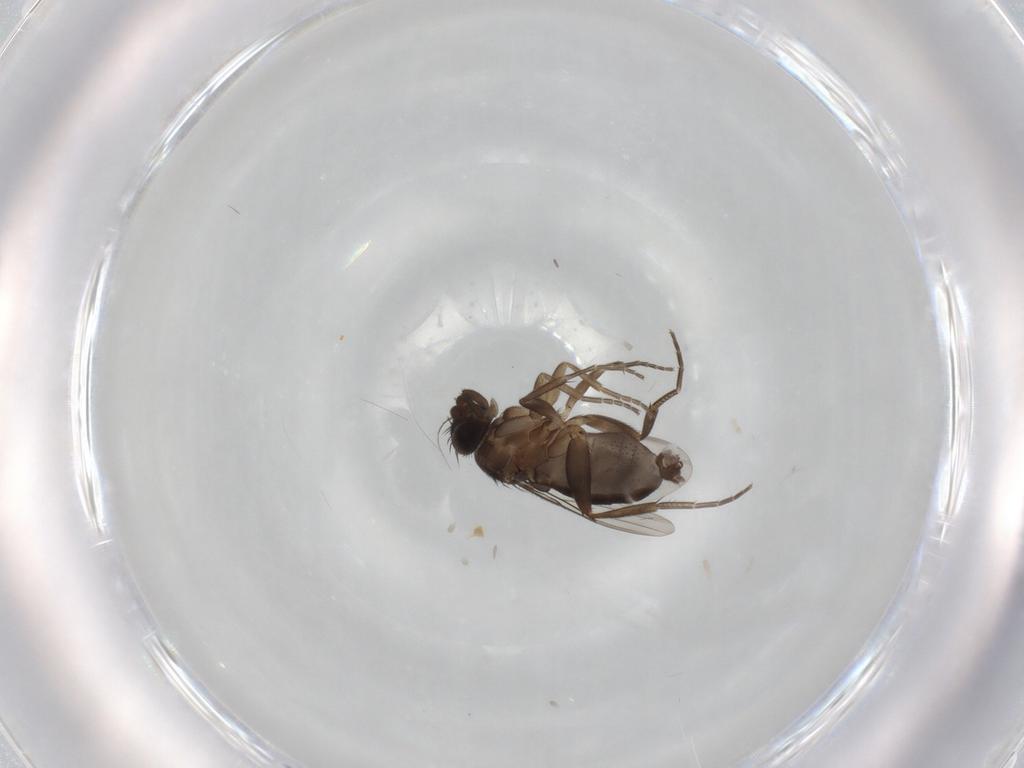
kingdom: Animalia
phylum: Arthropoda
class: Insecta
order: Diptera
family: Phoridae
